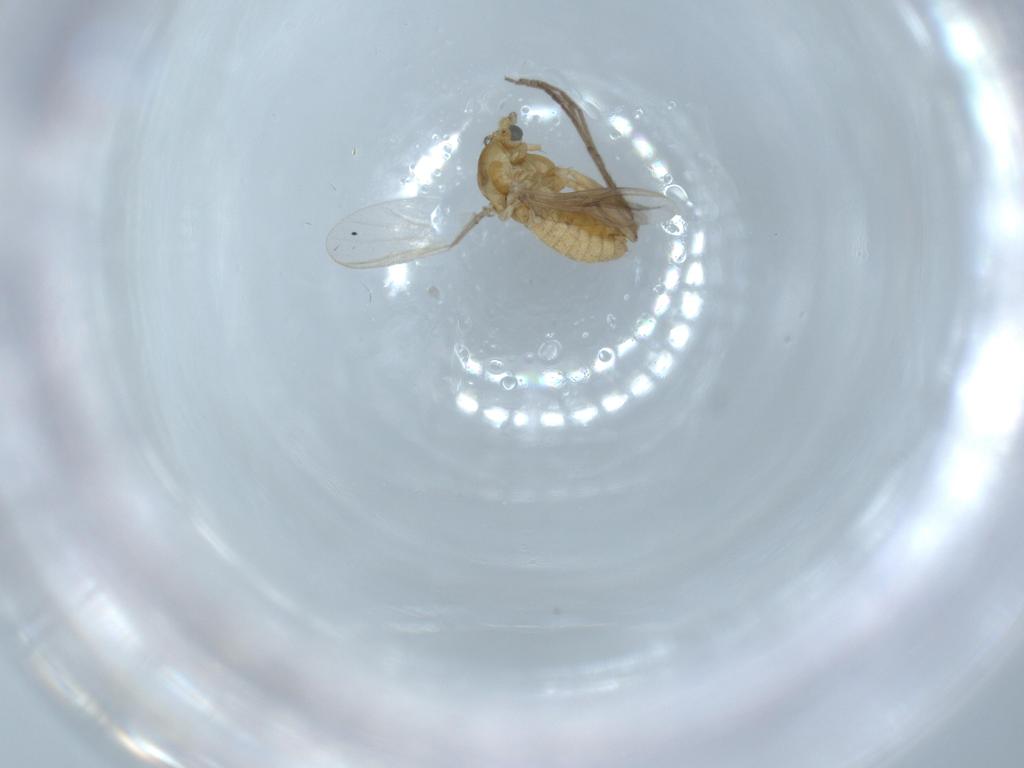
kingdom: Animalia
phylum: Arthropoda
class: Insecta
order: Diptera
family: Chironomidae
